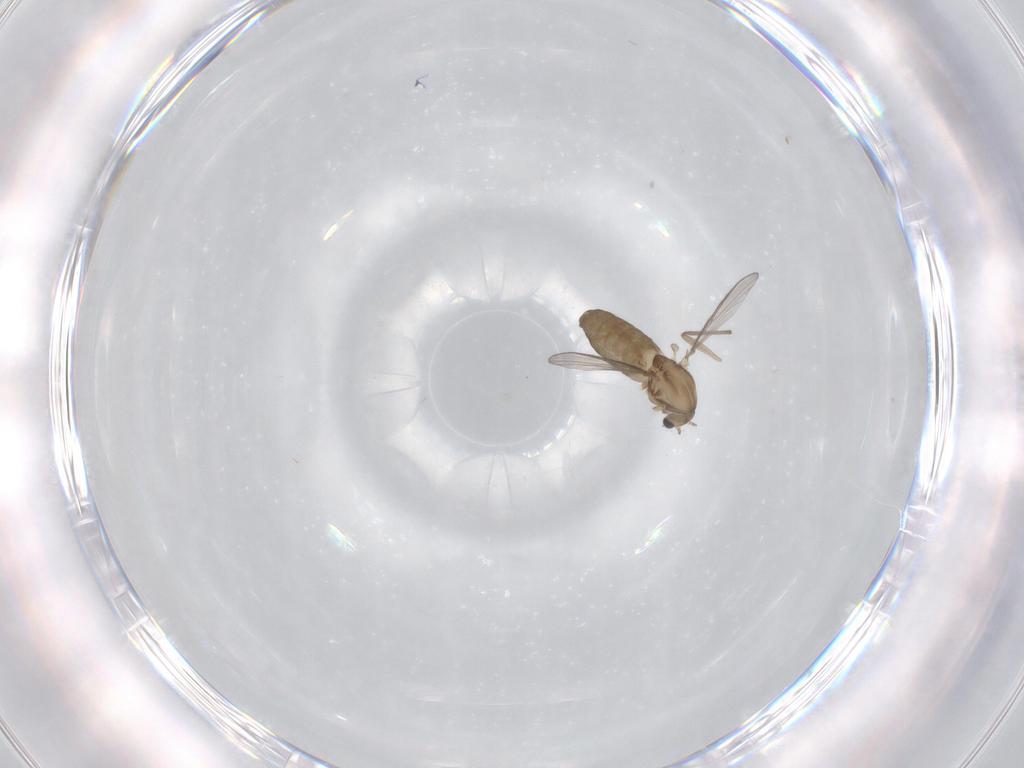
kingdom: Animalia
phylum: Arthropoda
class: Insecta
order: Diptera
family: Chironomidae
